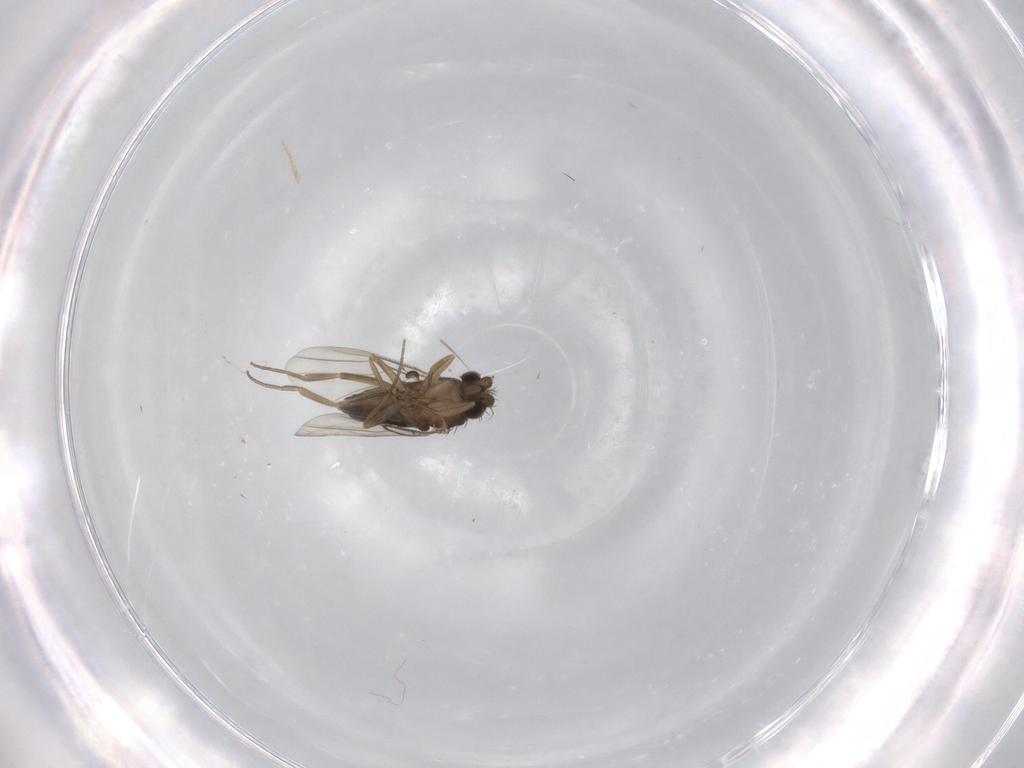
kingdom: Animalia
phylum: Arthropoda
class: Insecta
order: Diptera
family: Phoridae
